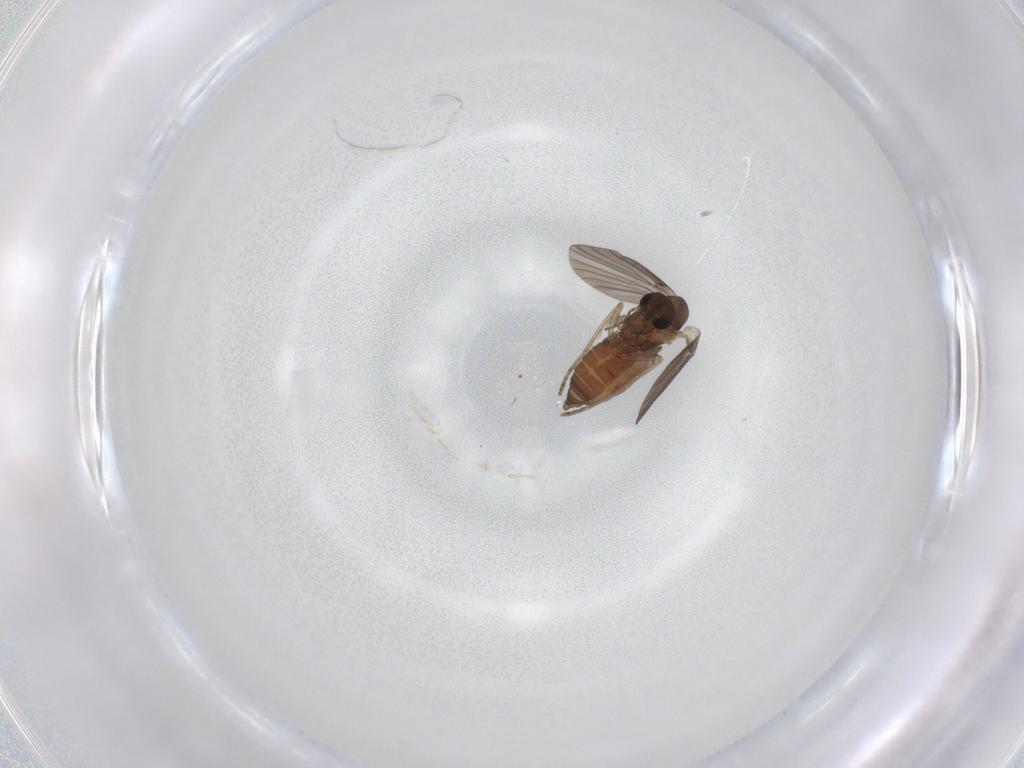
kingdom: Animalia
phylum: Arthropoda
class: Insecta
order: Diptera
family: Cecidomyiidae
